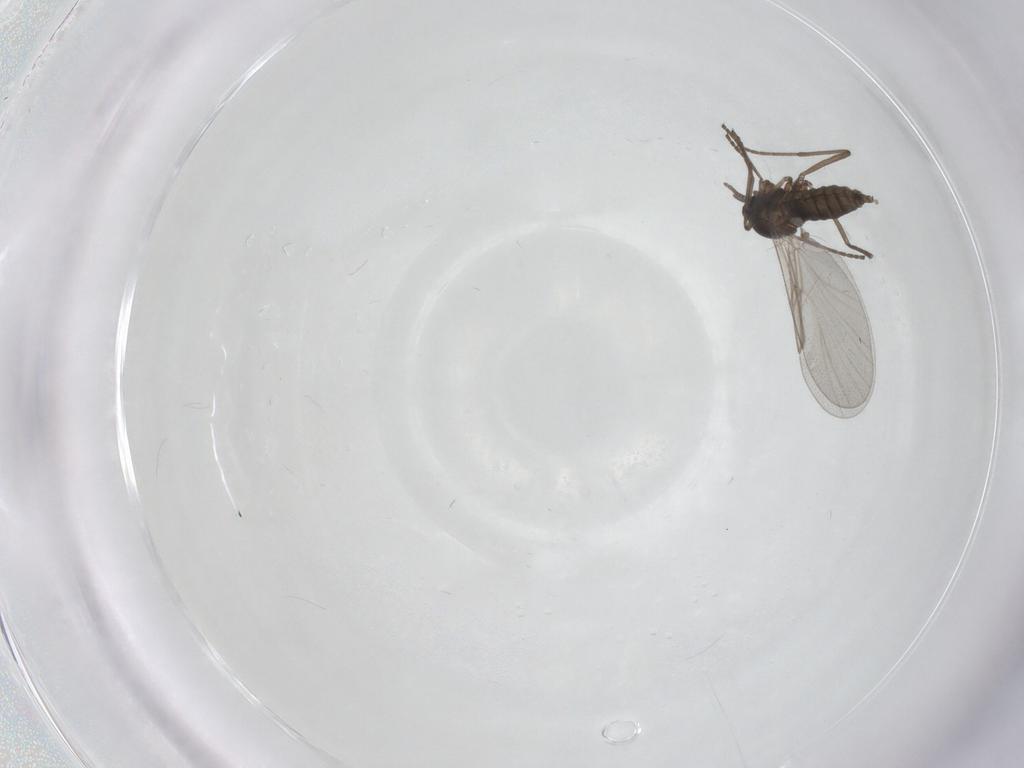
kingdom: Animalia
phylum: Arthropoda
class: Insecta
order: Diptera
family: Cecidomyiidae
